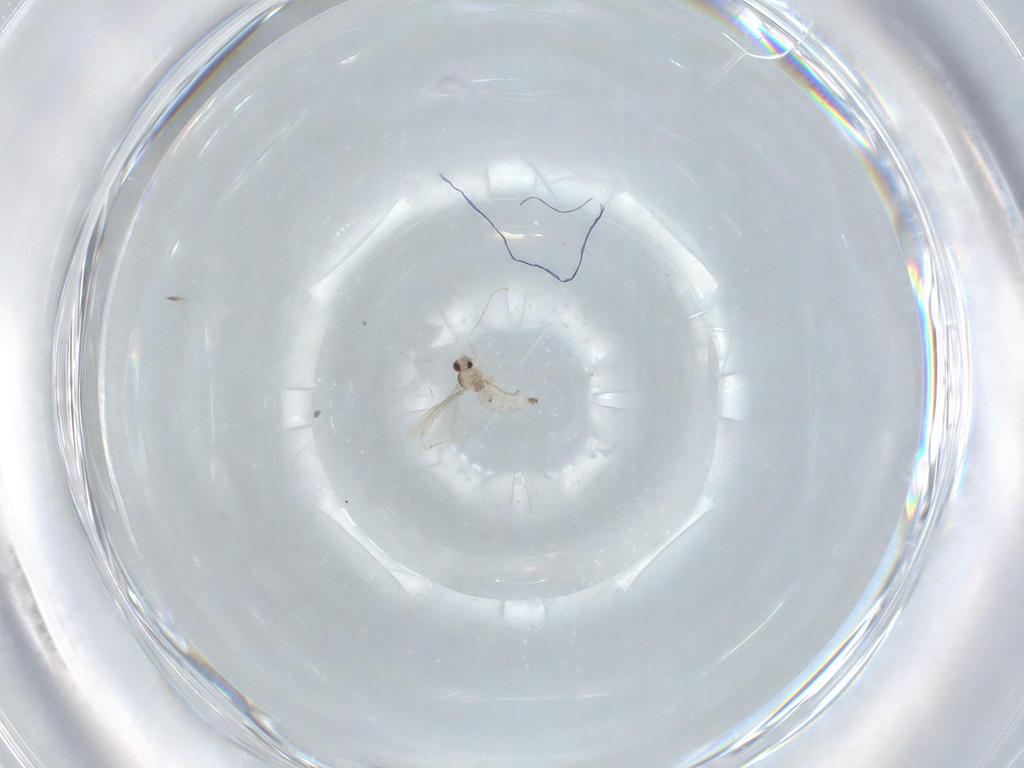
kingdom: Animalia
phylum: Arthropoda
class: Insecta
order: Diptera
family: Cecidomyiidae
